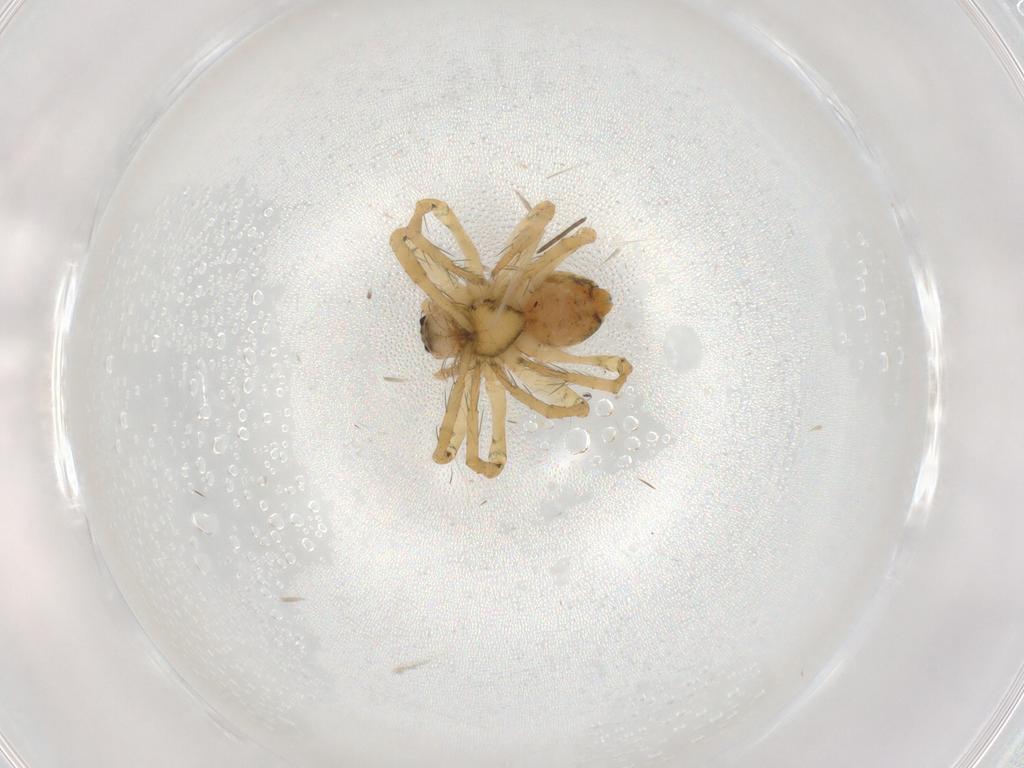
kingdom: Animalia
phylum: Arthropoda
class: Arachnida
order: Araneae
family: Pisauridae
